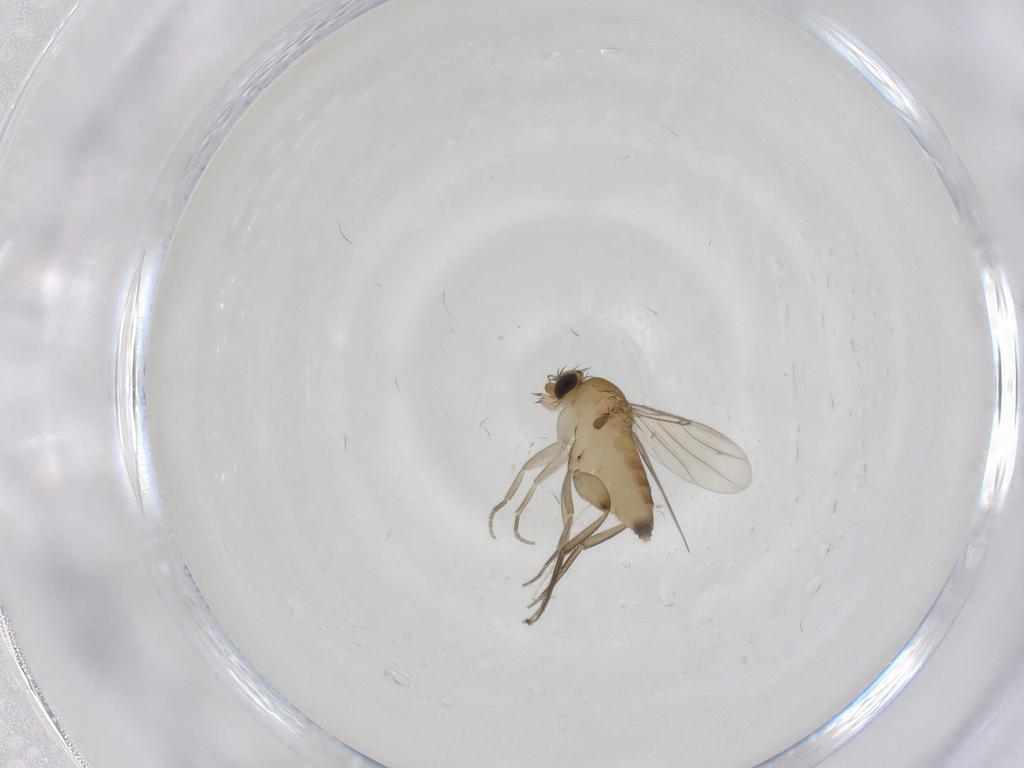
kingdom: Animalia
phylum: Arthropoda
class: Insecta
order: Diptera
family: Phoridae
